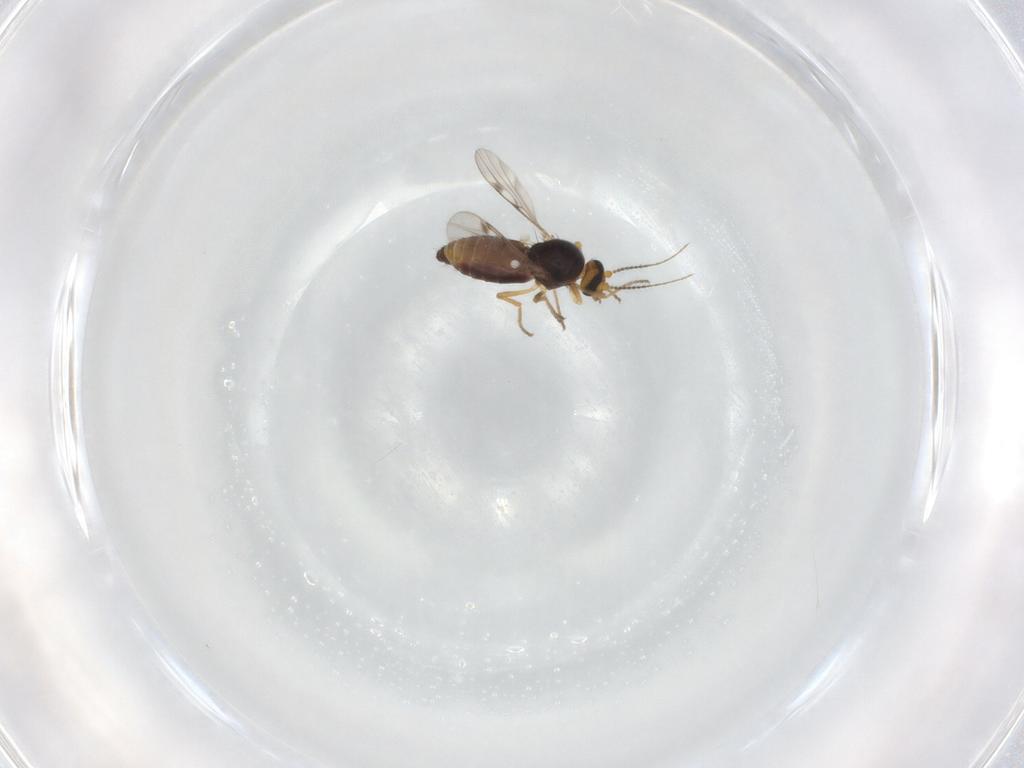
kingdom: Animalia
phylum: Arthropoda
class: Insecta
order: Diptera
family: Ceratopogonidae
